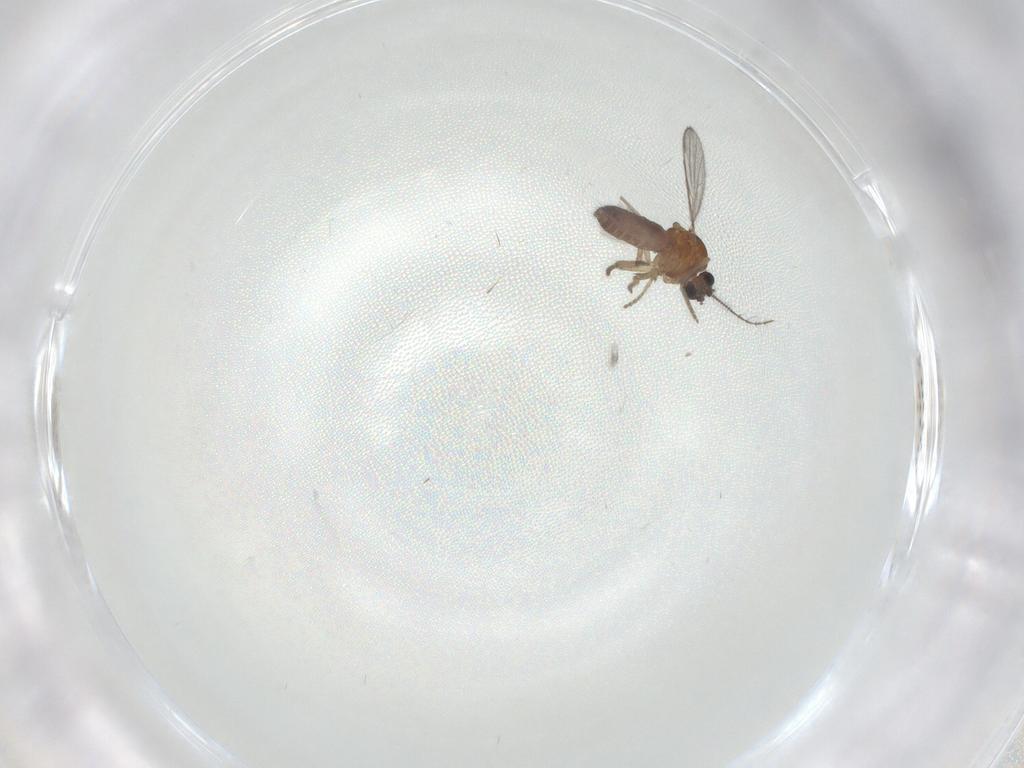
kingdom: Animalia
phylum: Arthropoda
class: Insecta
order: Diptera
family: Ceratopogonidae
